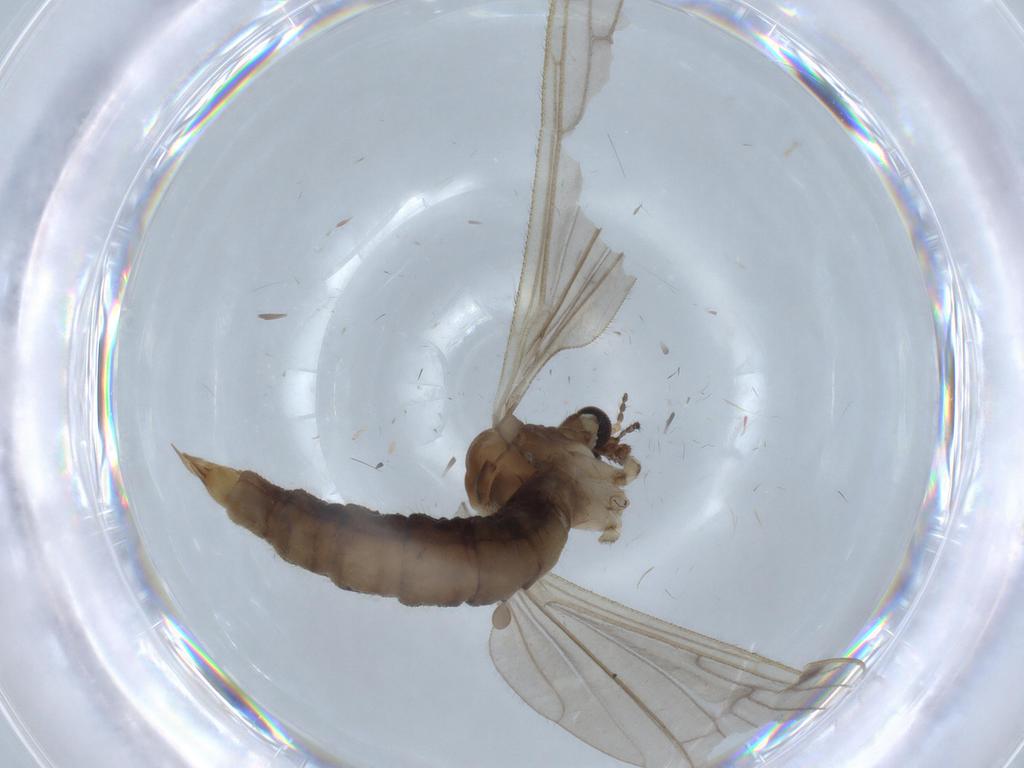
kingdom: Animalia
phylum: Arthropoda
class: Insecta
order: Diptera
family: Limoniidae
